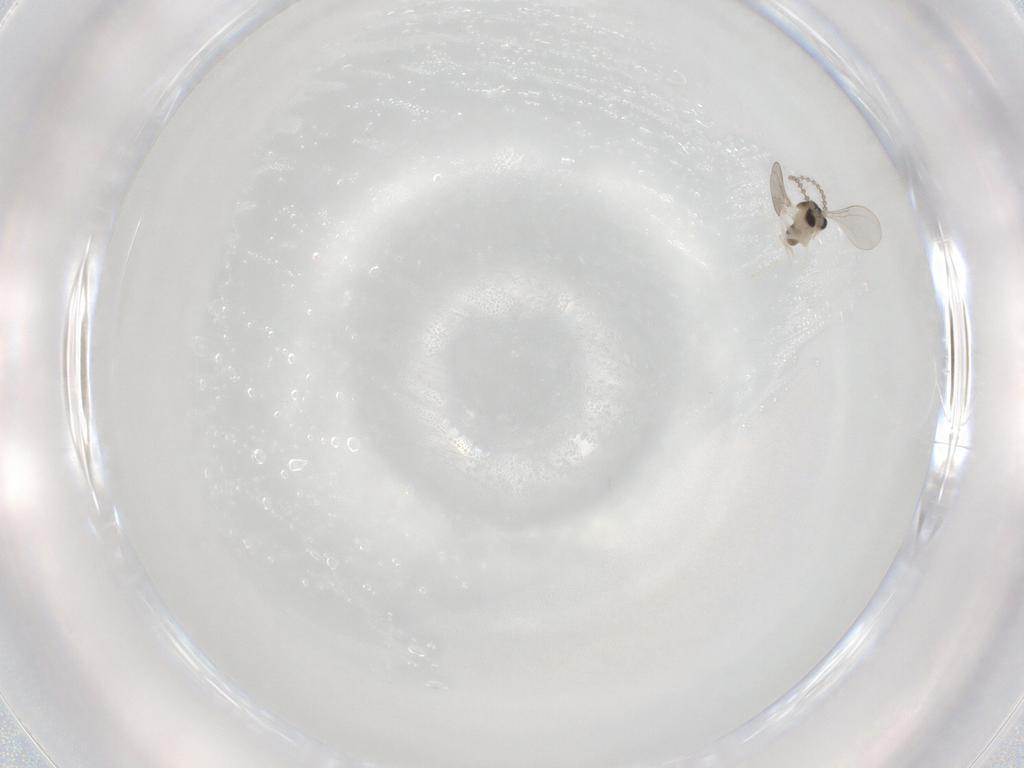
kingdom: Animalia
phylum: Arthropoda
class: Insecta
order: Diptera
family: Cecidomyiidae
